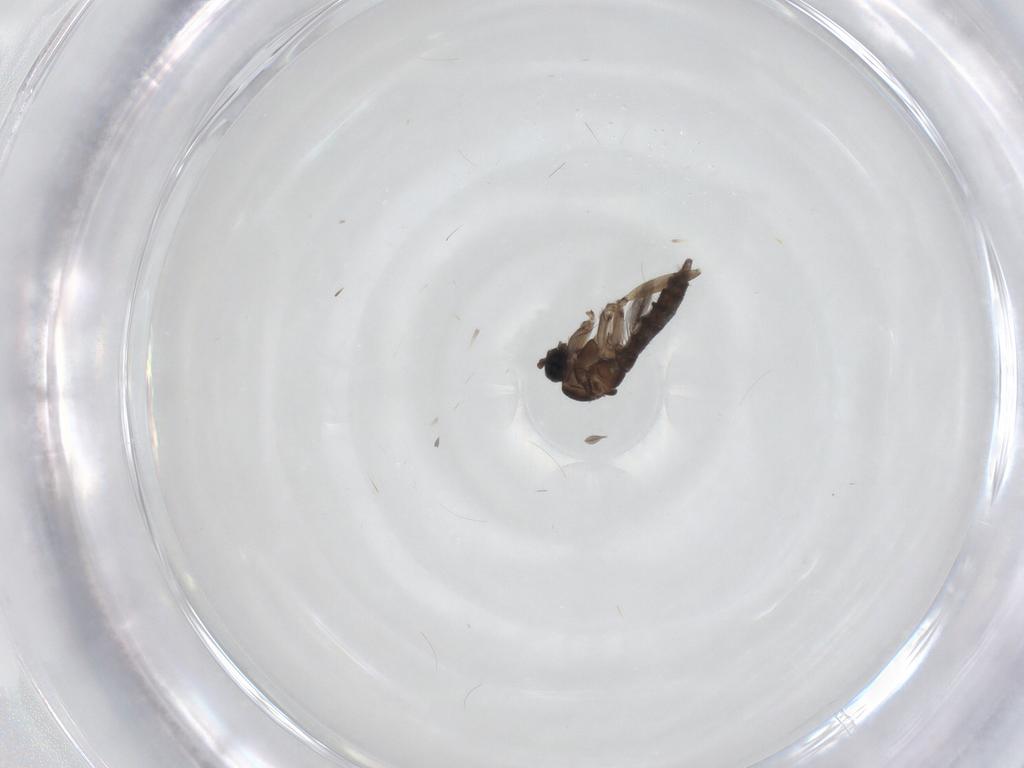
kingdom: Animalia
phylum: Arthropoda
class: Insecta
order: Diptera
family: Sciaridae
